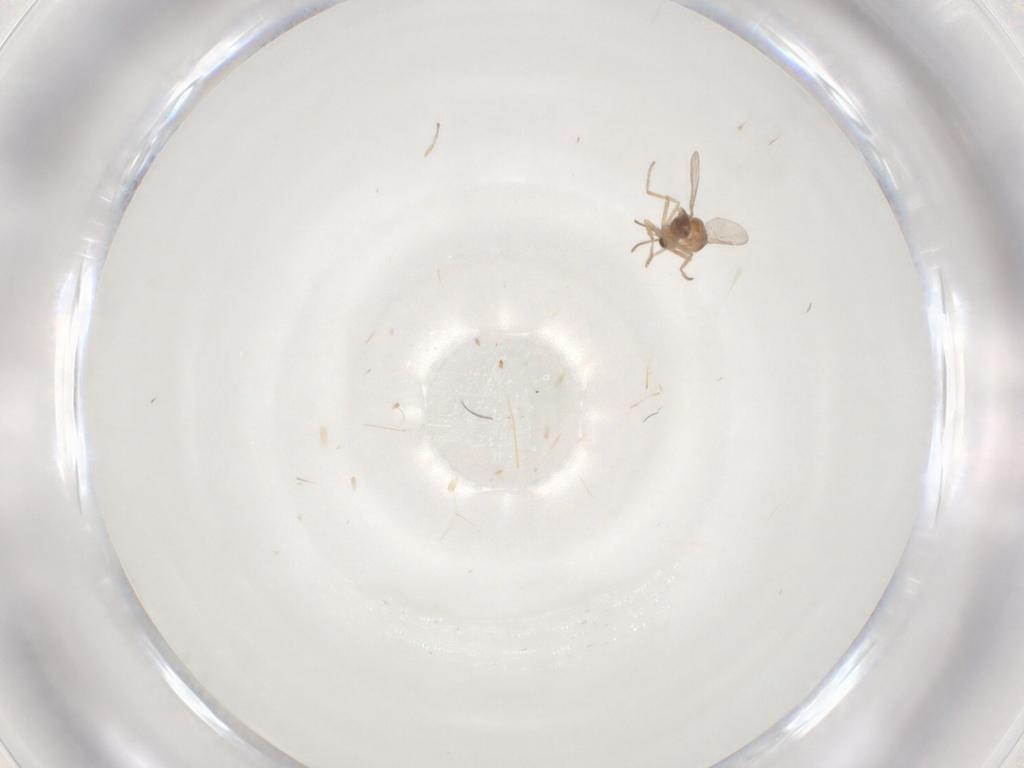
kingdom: Animalia
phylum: Arthropoda
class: Insecta
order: Diptera
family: Ceratopogonidae
